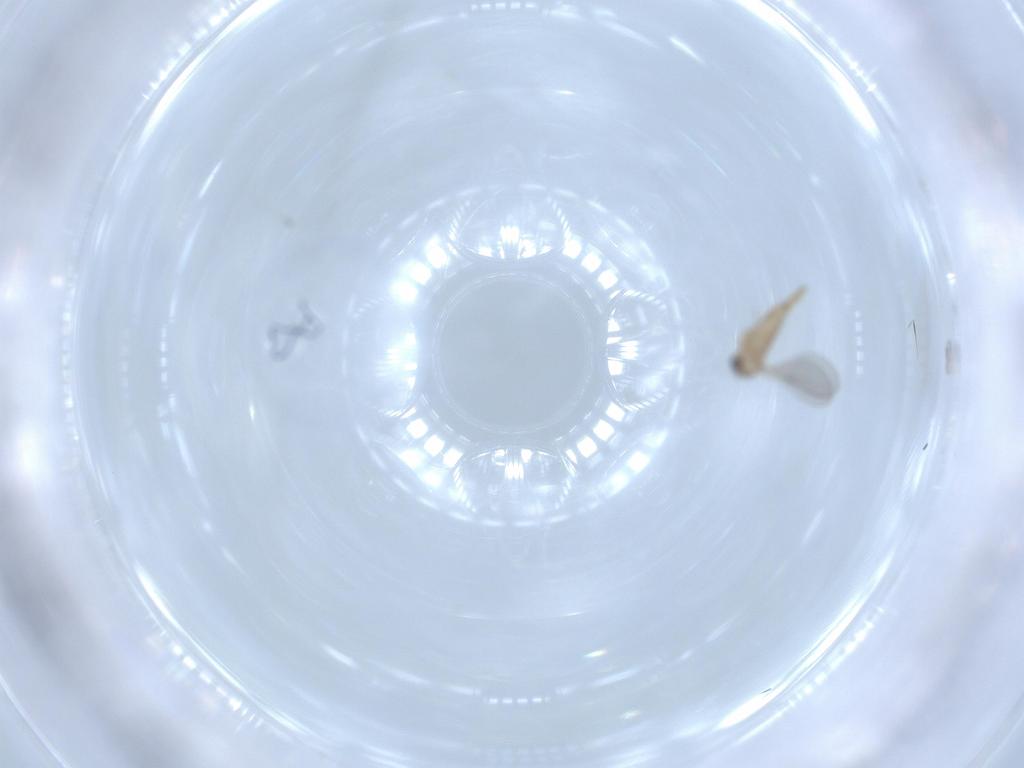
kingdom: Animalia
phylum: Arthropoda
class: Insecta
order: Diptera
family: Cecidomyiidae
